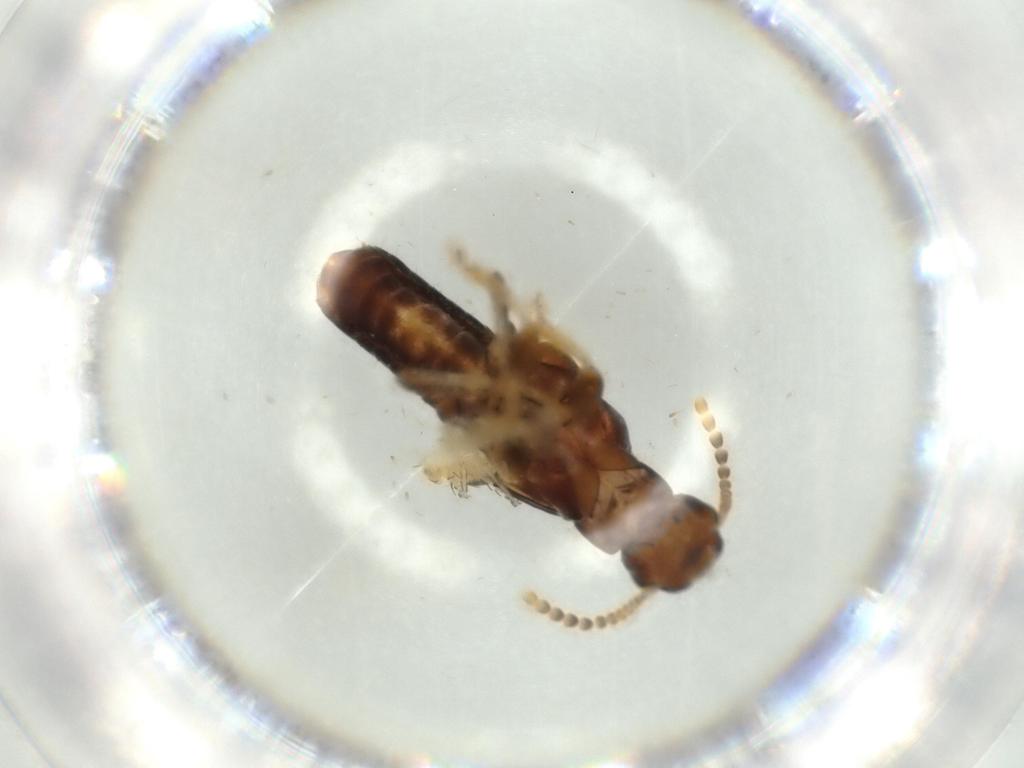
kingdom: Animalia
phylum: Arthropoda
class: Insecta
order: Blattodea
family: Ectobiidae
